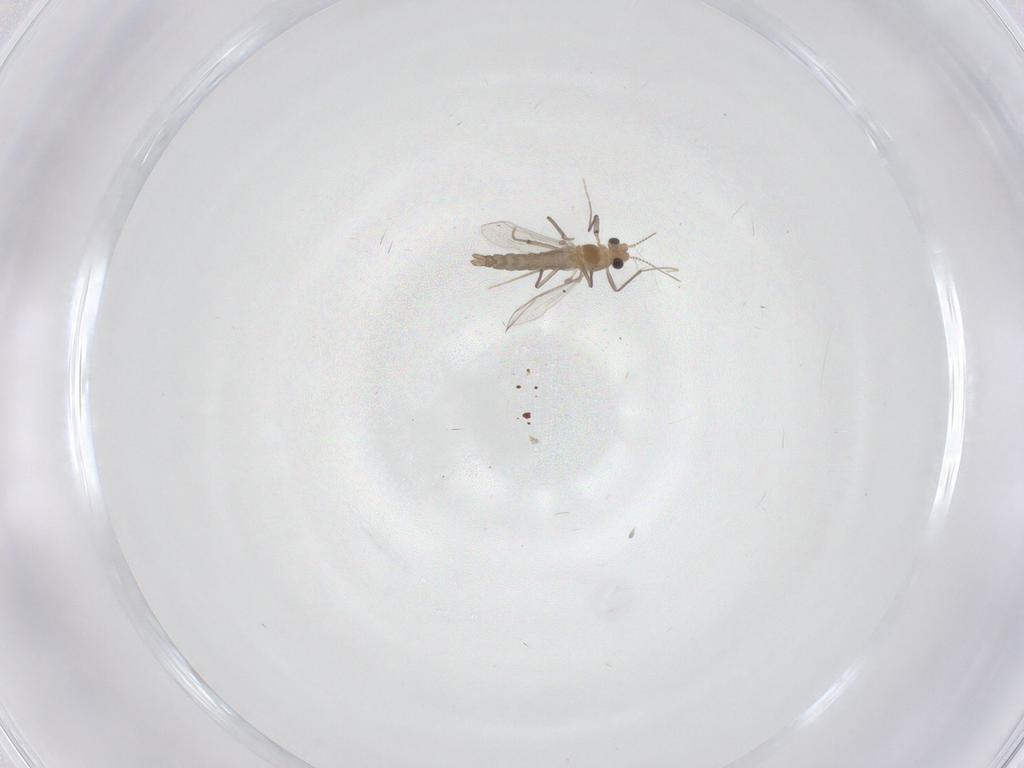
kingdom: Animalia
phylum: Arthropoda
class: Insecta
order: Diptera
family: Chironomidae
